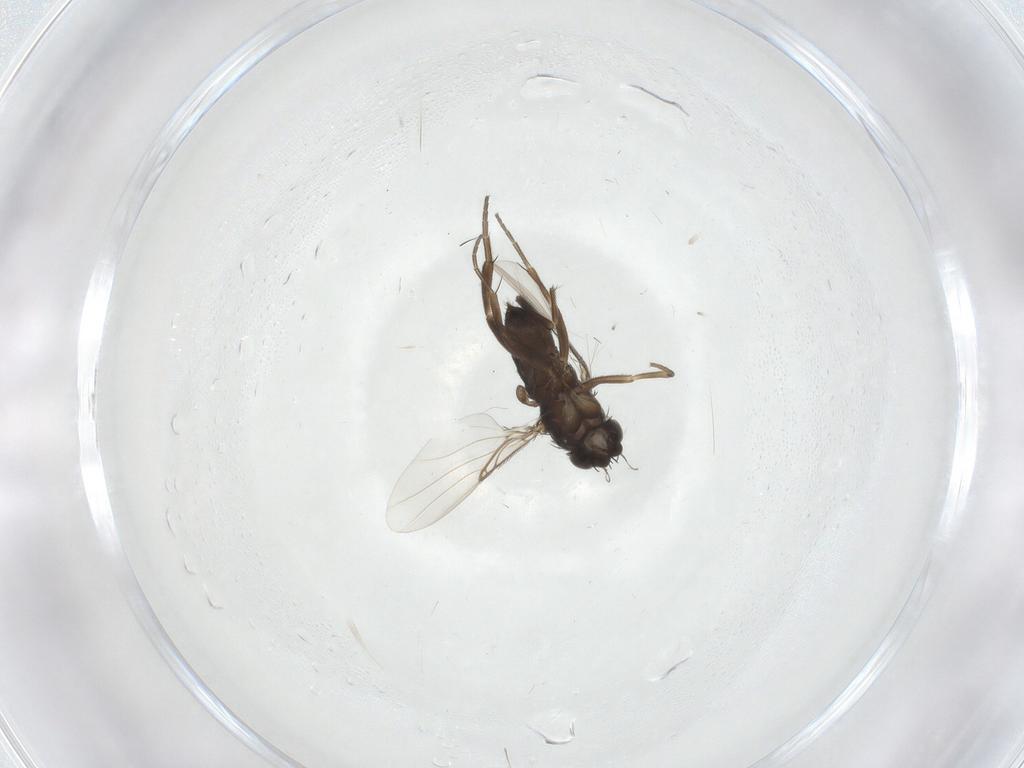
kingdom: Animalia
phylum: Arthropoda
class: Insecta
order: Diptera
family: Phoridae
